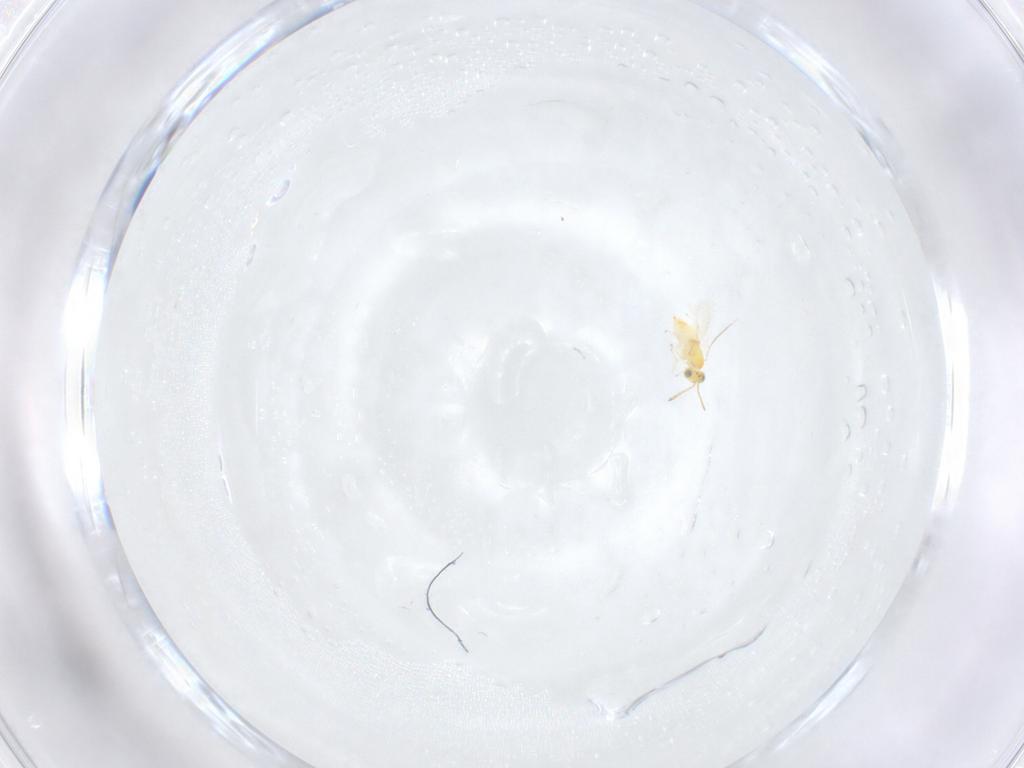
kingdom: Animalia
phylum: Arthropoda
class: Insecta
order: Hymenoptera
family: Aphelinidae
